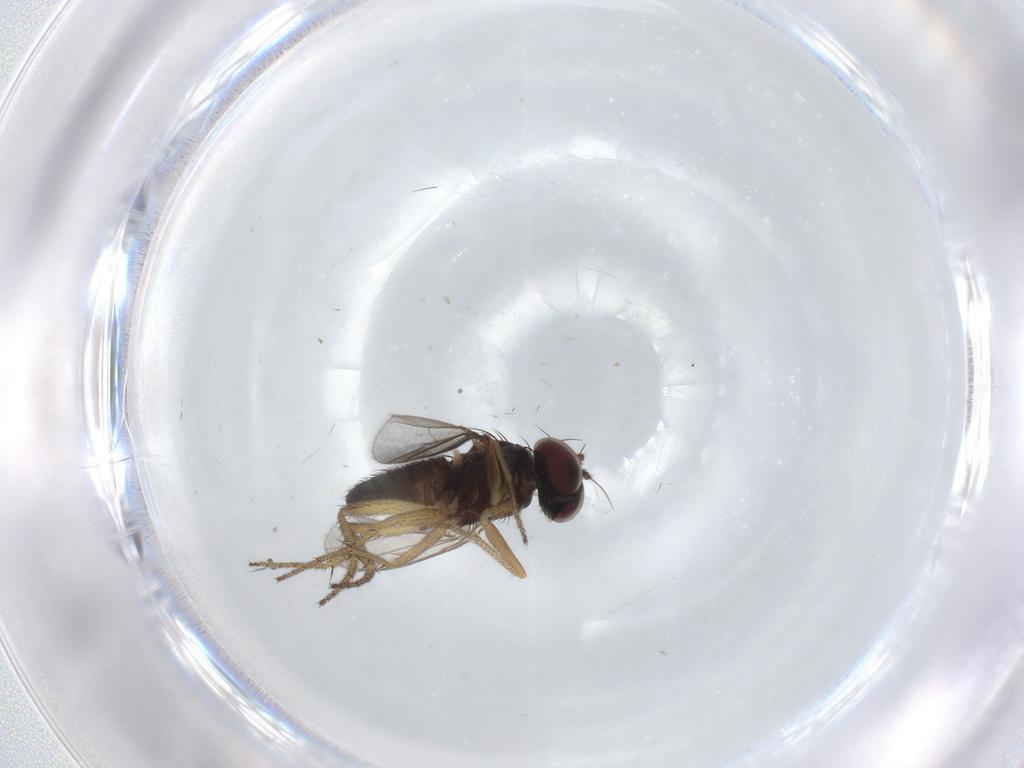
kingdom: Animalia
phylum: Arthropoda
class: Insecta
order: Diptera
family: Dolichopodidae
